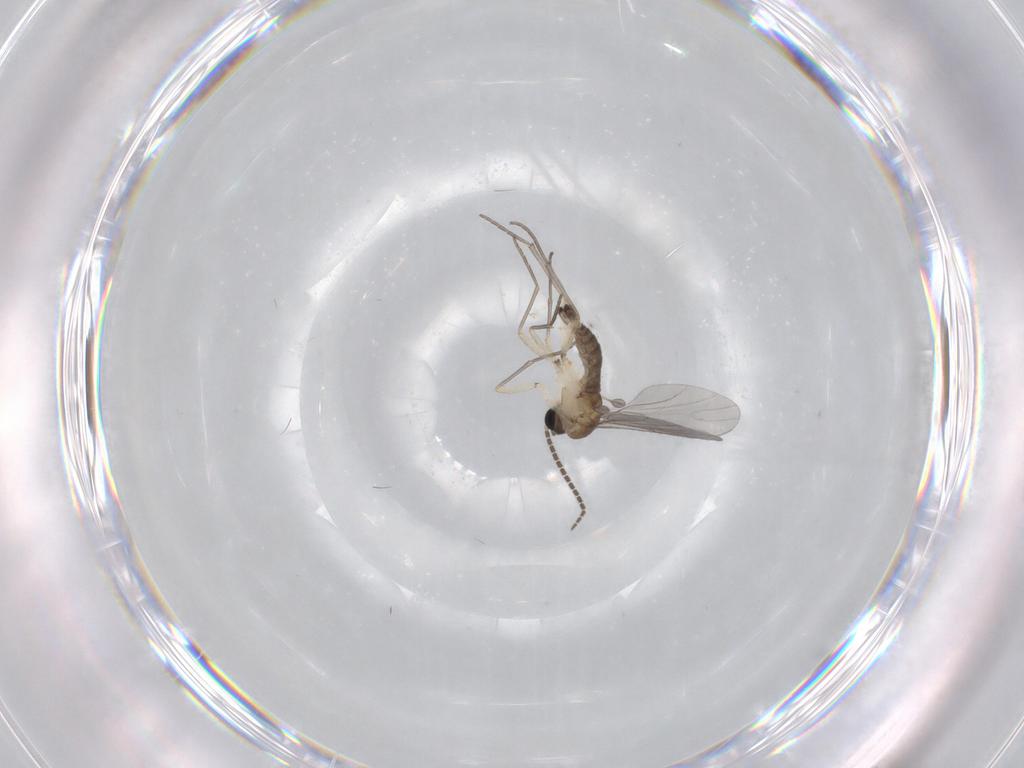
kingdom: Animalia
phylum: Arthropoda
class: Insecta
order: Diptera
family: Sciaridae
